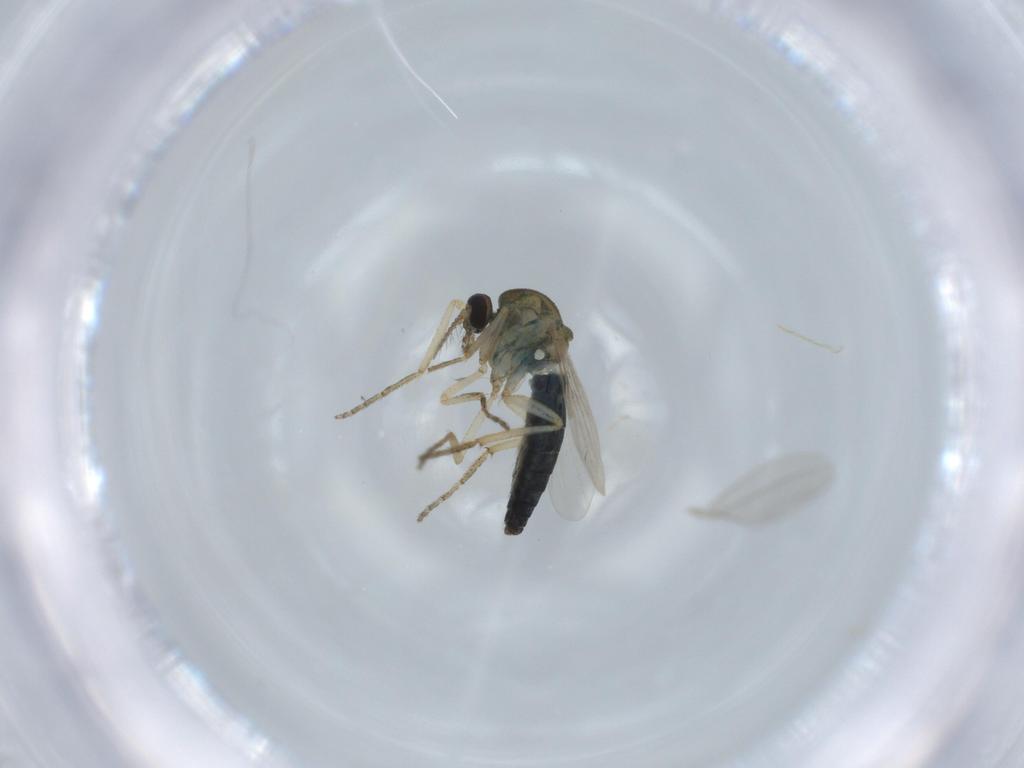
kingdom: Animalia
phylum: Arthropoda
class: Insecta
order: Diptera
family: Ceratopogonidae
